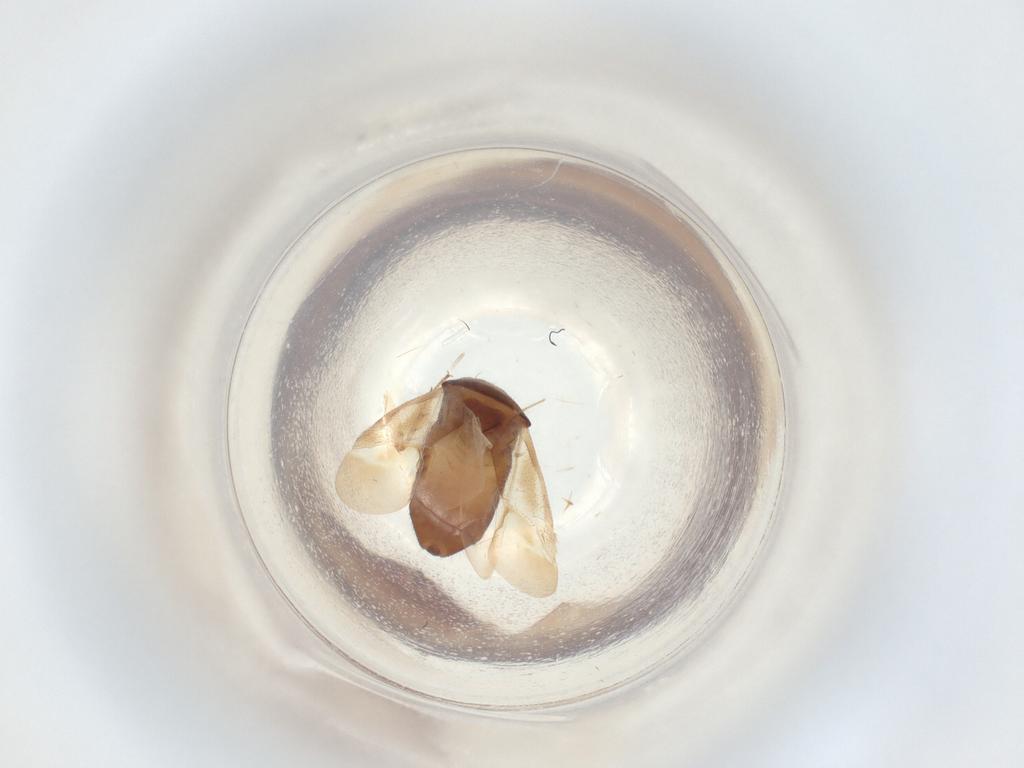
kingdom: Animalia
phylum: Arthropoda
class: Insecta
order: Hemiptera
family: Miridae
